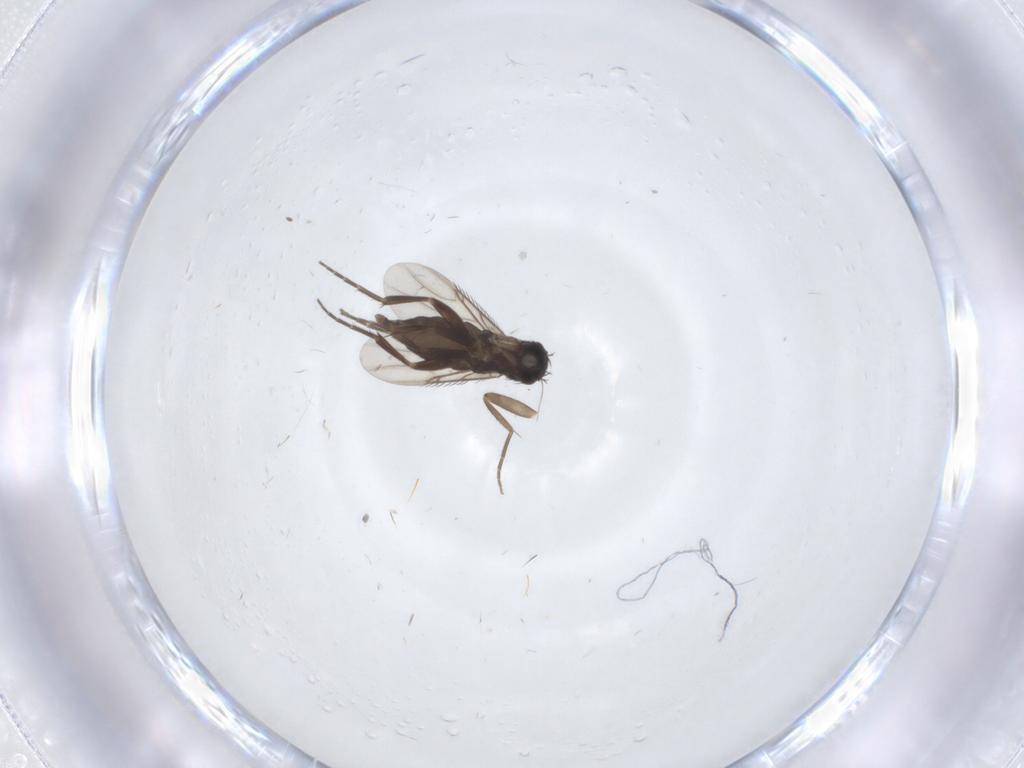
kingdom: Animalia
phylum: Arthropoda
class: Insecta
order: Diptera
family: Phoridae
